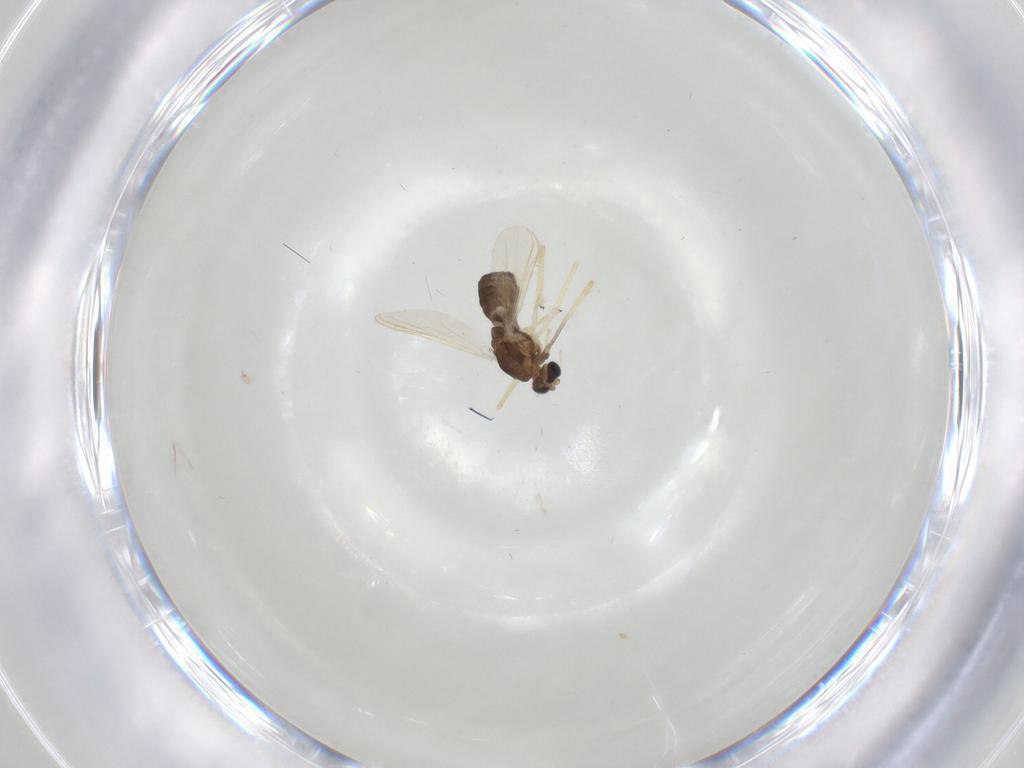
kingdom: Animalia
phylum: Arthropoda
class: Insecta
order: Diptera
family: Chironomidae
